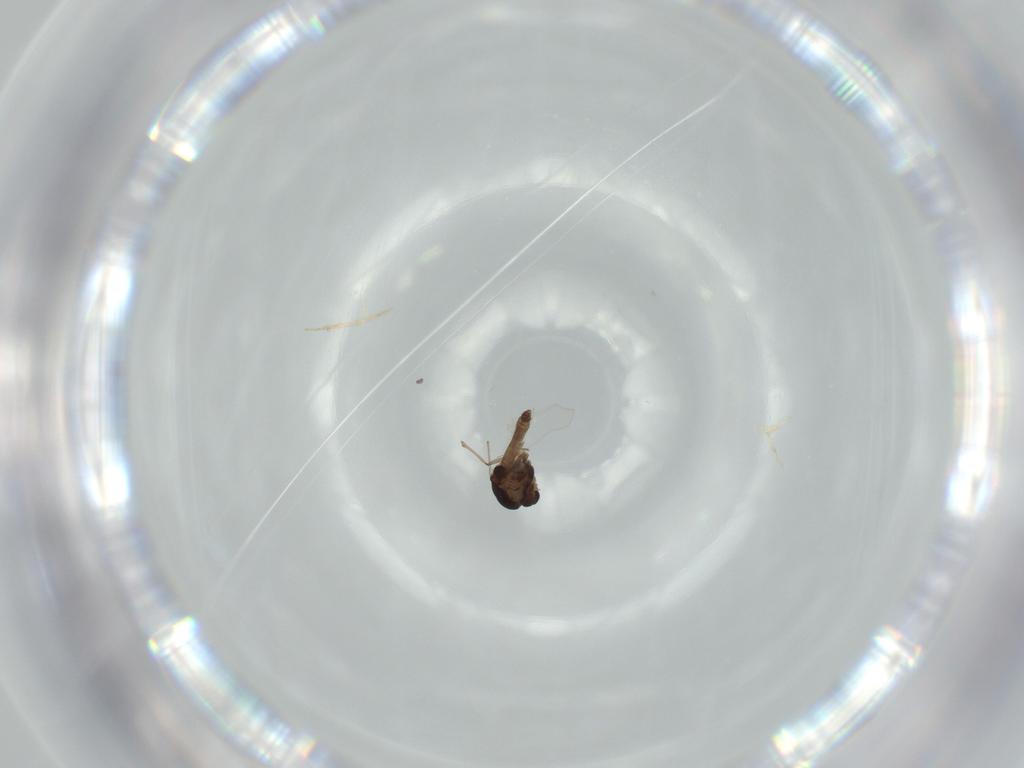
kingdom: Animalia
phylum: Arthropoda
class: Insecta
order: Diptera
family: Chironomidae
